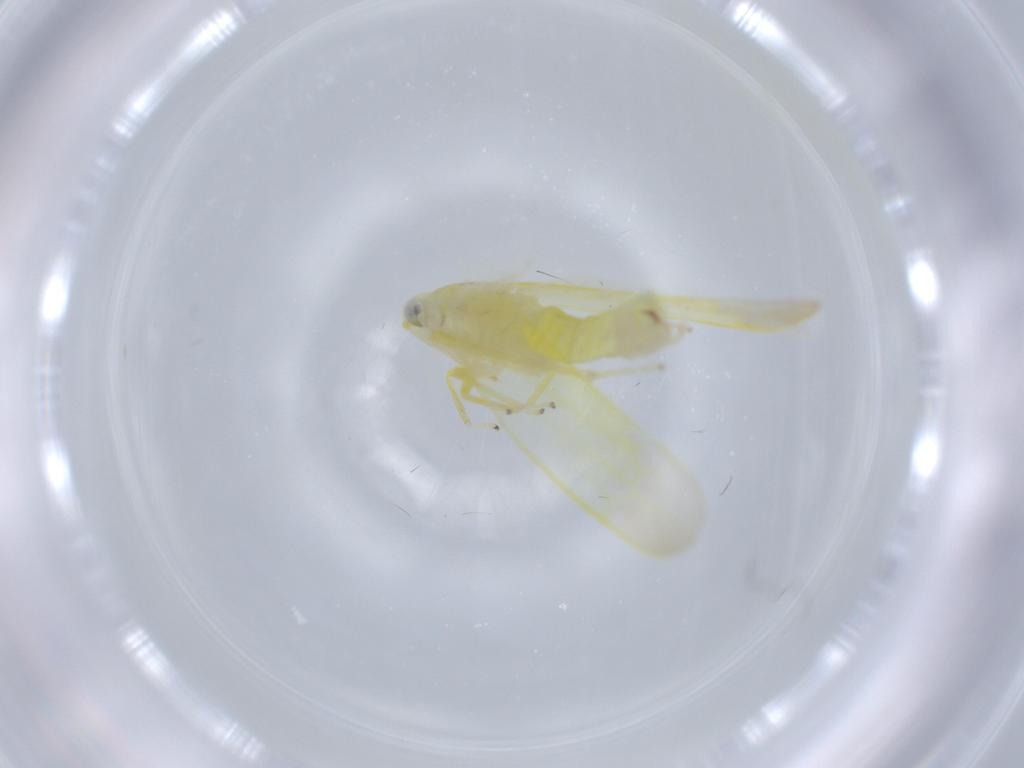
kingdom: Animalia
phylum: Arthropoda
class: Insecta
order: Hemiptera
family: Cicadellidae
